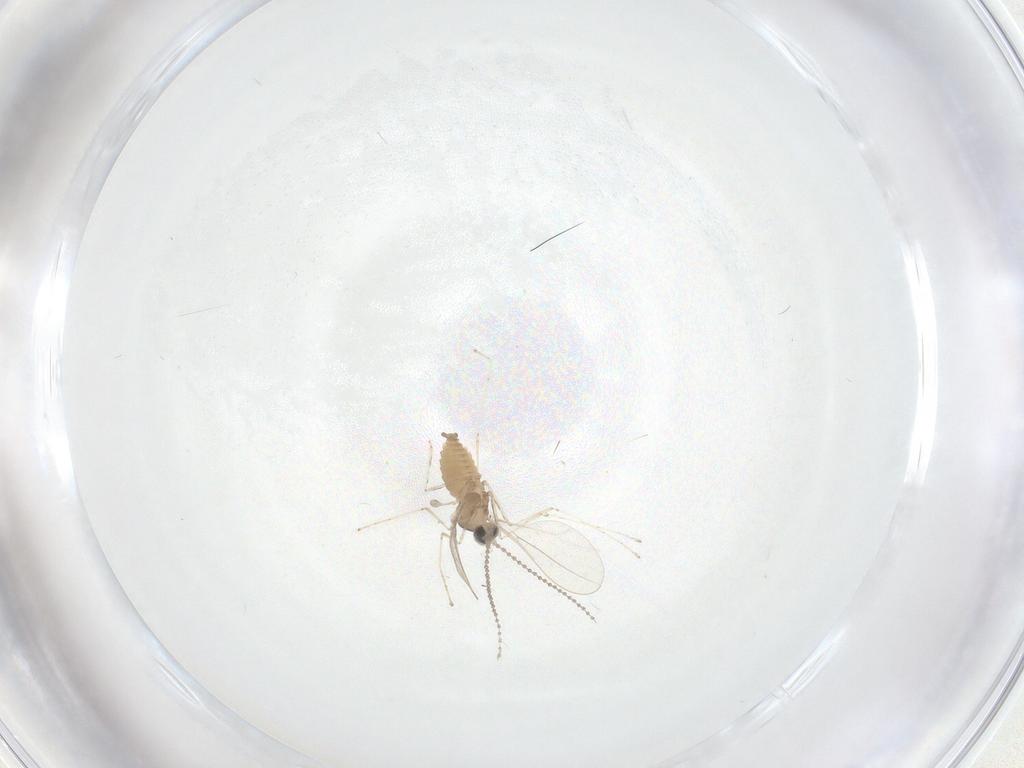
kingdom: Animalia
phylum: Arthropoda
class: Insecta
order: Diptera
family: Cecidomyiidae
